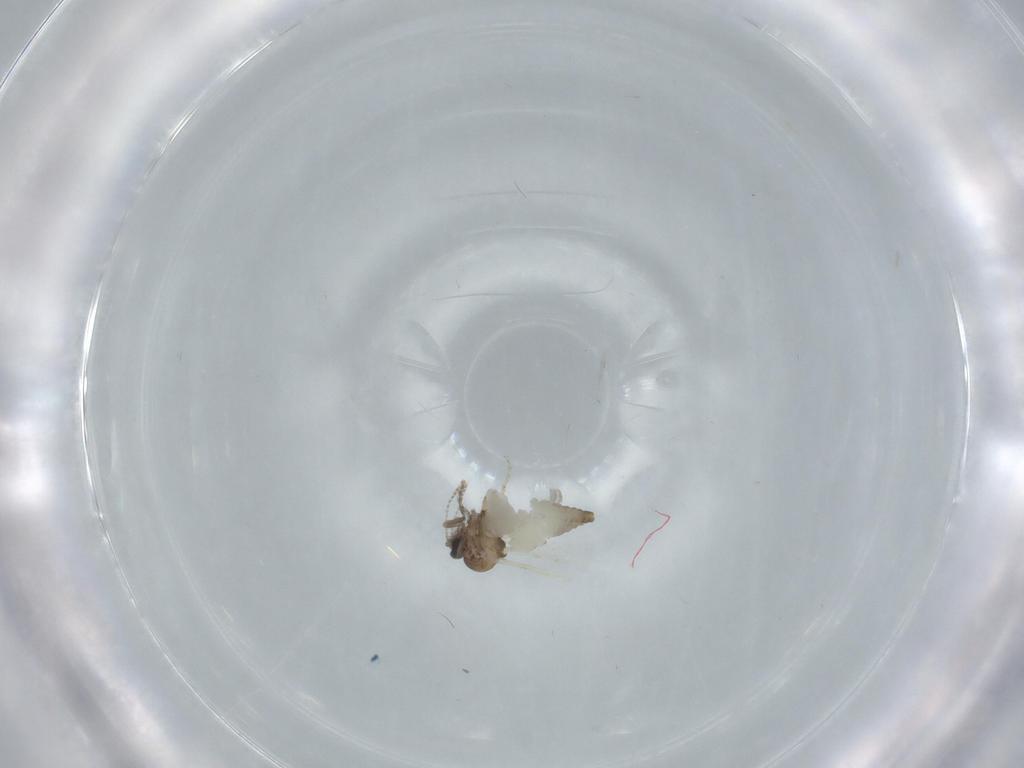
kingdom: Animalia
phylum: Arthropoda
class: Insecta
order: Diptera
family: Ceratopogonidae
